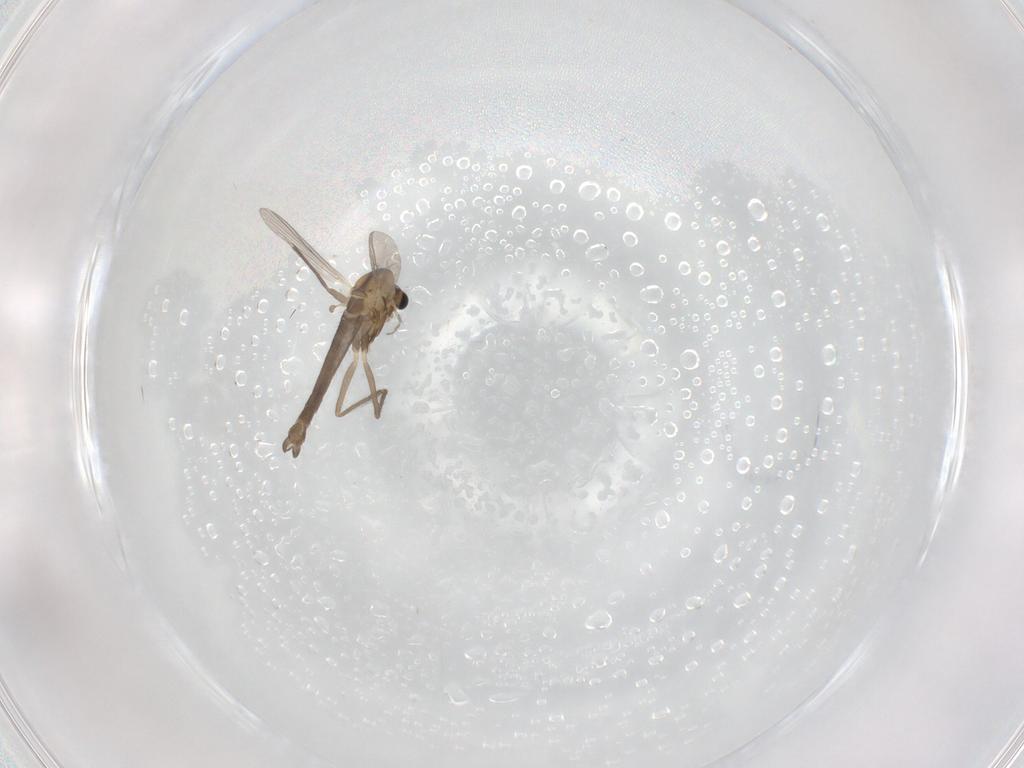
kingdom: Animalia
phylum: Arthropoda
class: Insecta
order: Diptera
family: Chironomidae
